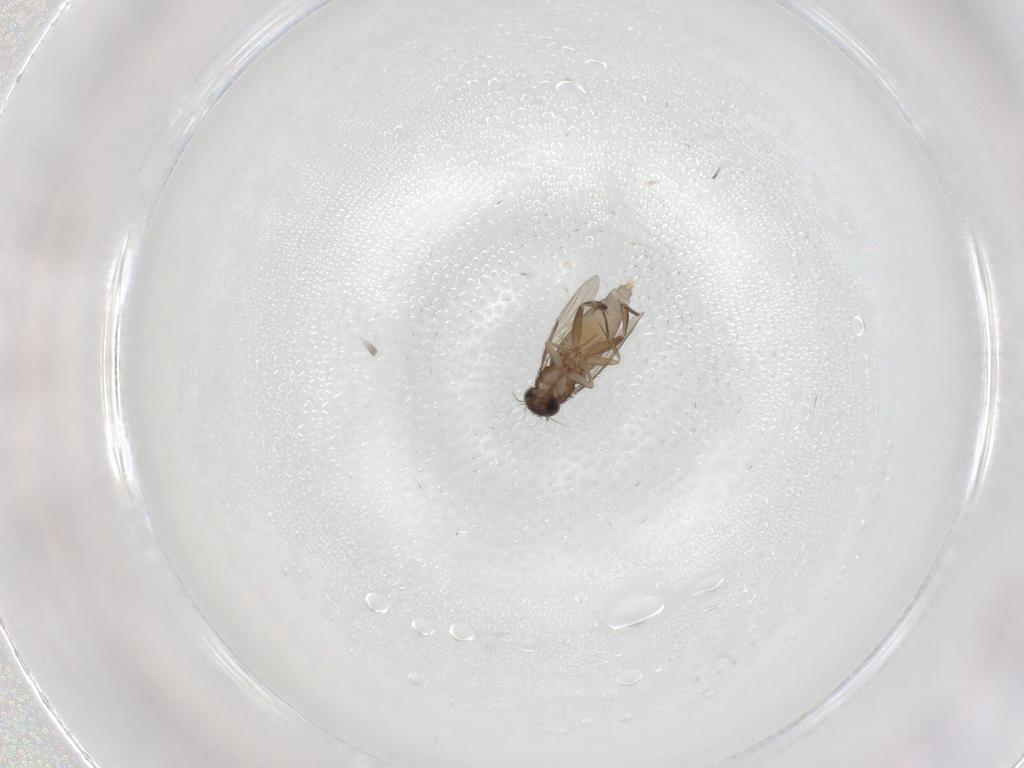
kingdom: Animalia
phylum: Arthropoda
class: Insecta
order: Diptera
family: Phoridae
